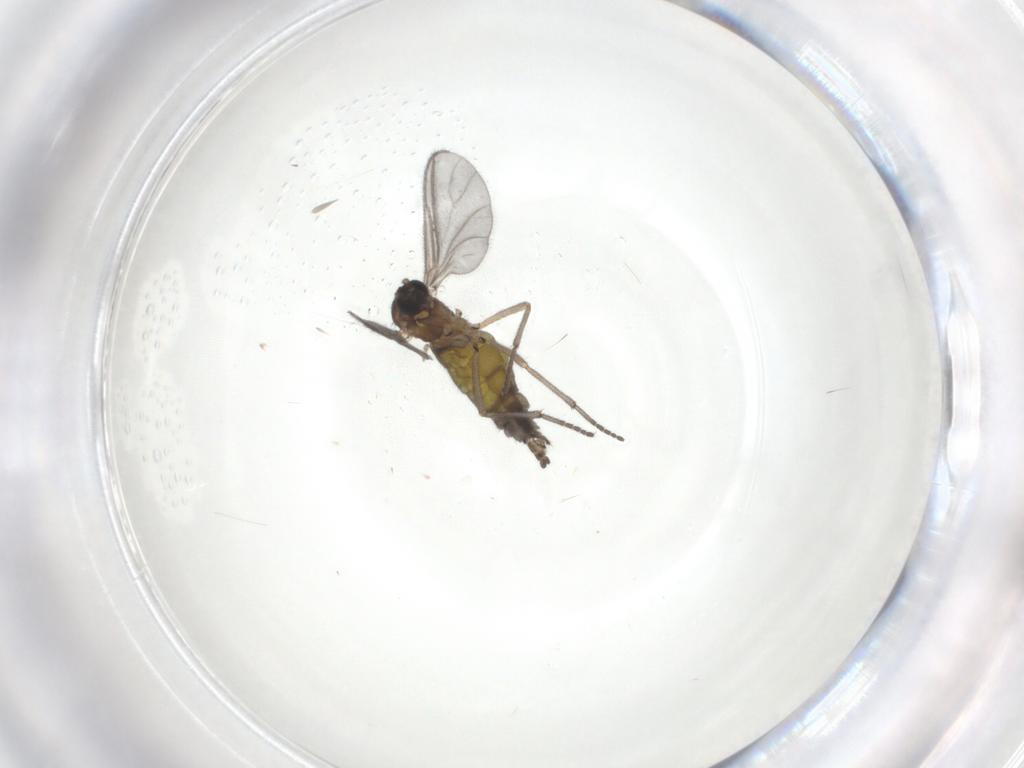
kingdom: Animalia
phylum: Arthropoda
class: Insecta
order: Diptera
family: Sciaridae
